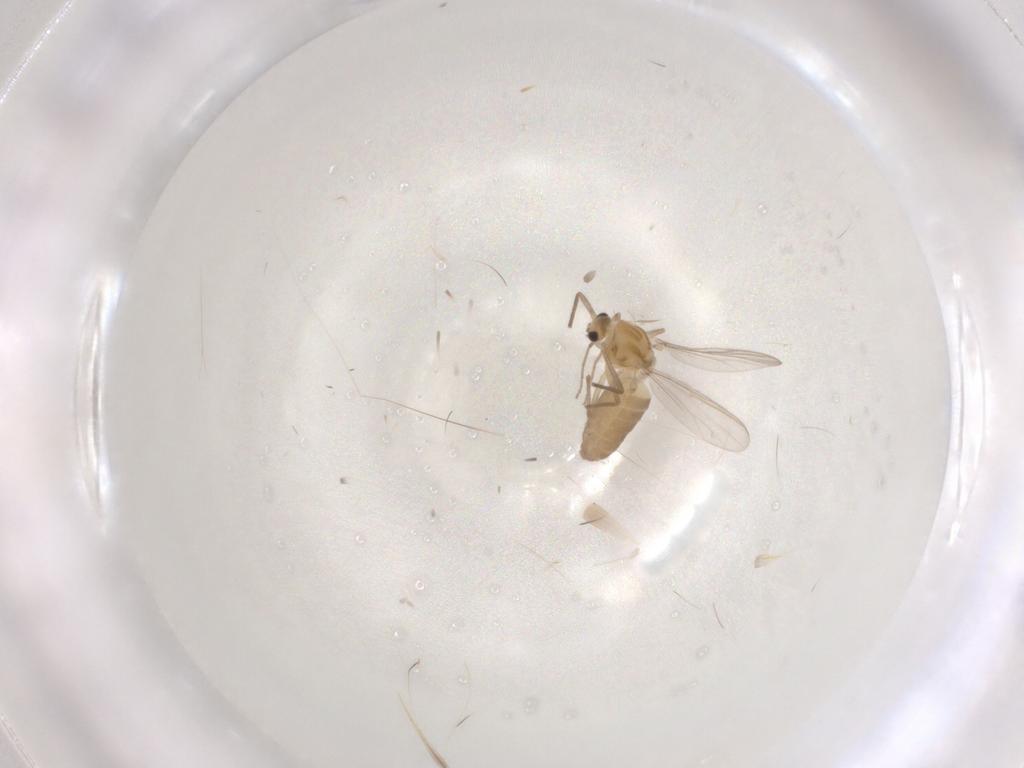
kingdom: Animalia
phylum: Arthropoda
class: Insecta
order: Diptera
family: Chironomidae
